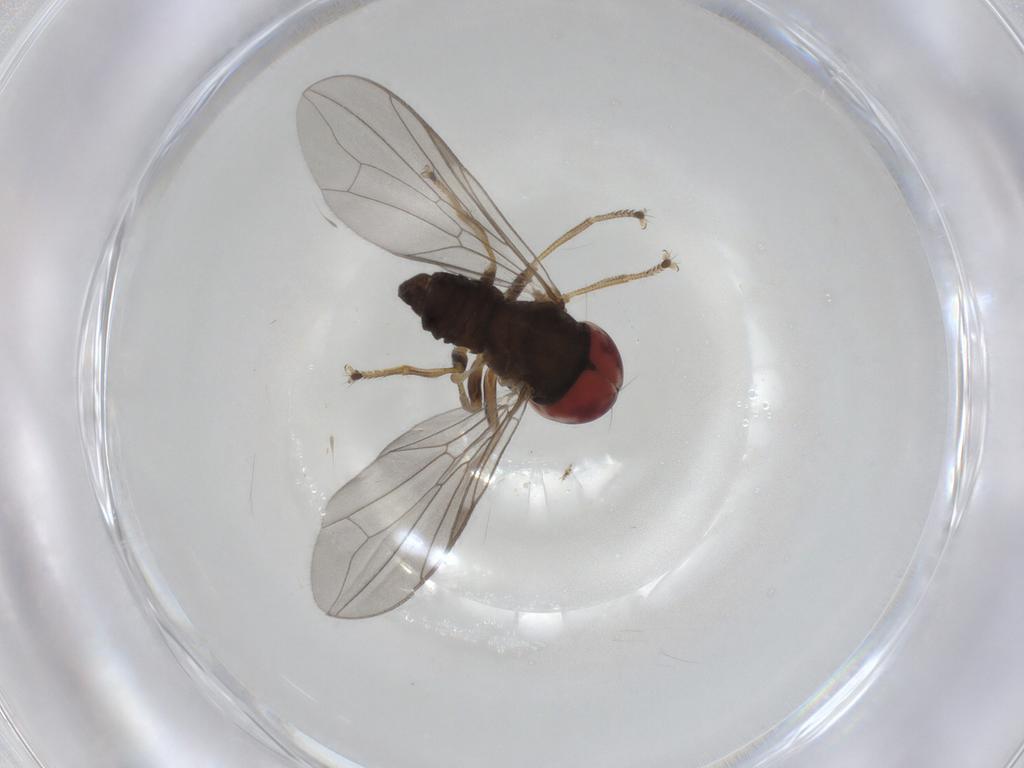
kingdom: Animalia
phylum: Arthropoda
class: Insecta
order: Diptera
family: Pipunculidae
